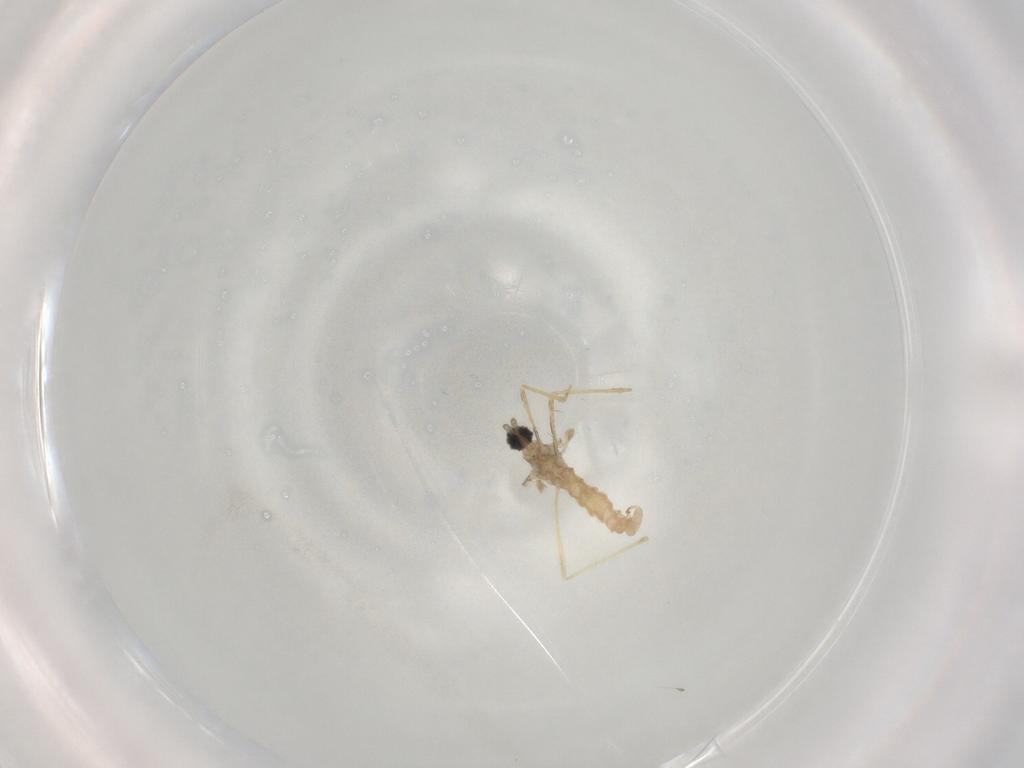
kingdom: Animalia
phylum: Arthropoda
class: Insecta
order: Diptera
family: Cecidomyiidae
